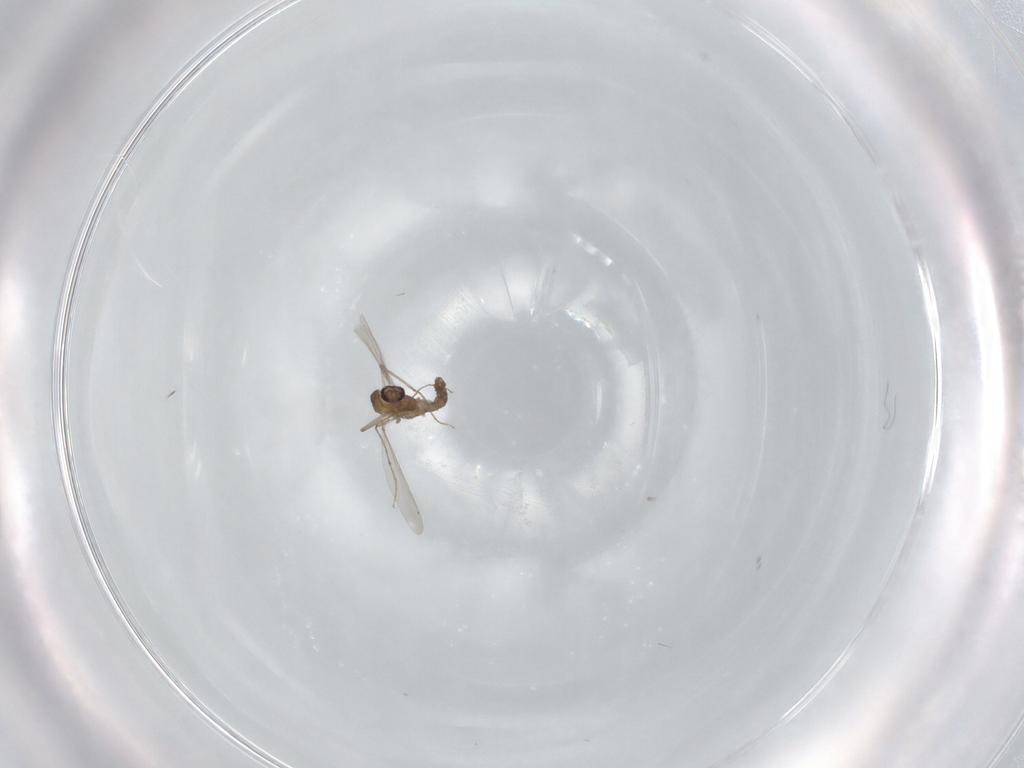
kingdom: Animalia
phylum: Arthropoda
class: Insecta
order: Diptera
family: Chironomidae
